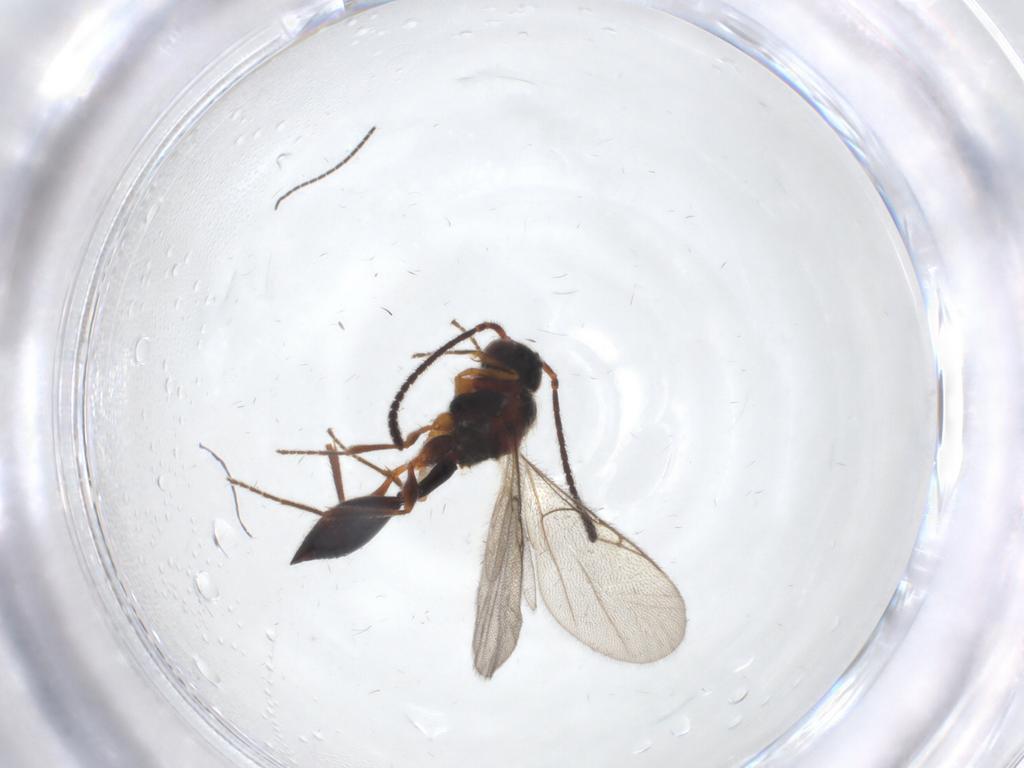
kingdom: Animalia
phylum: Arthropoda
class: Insecta
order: Hymenoptera
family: Diapriidae
